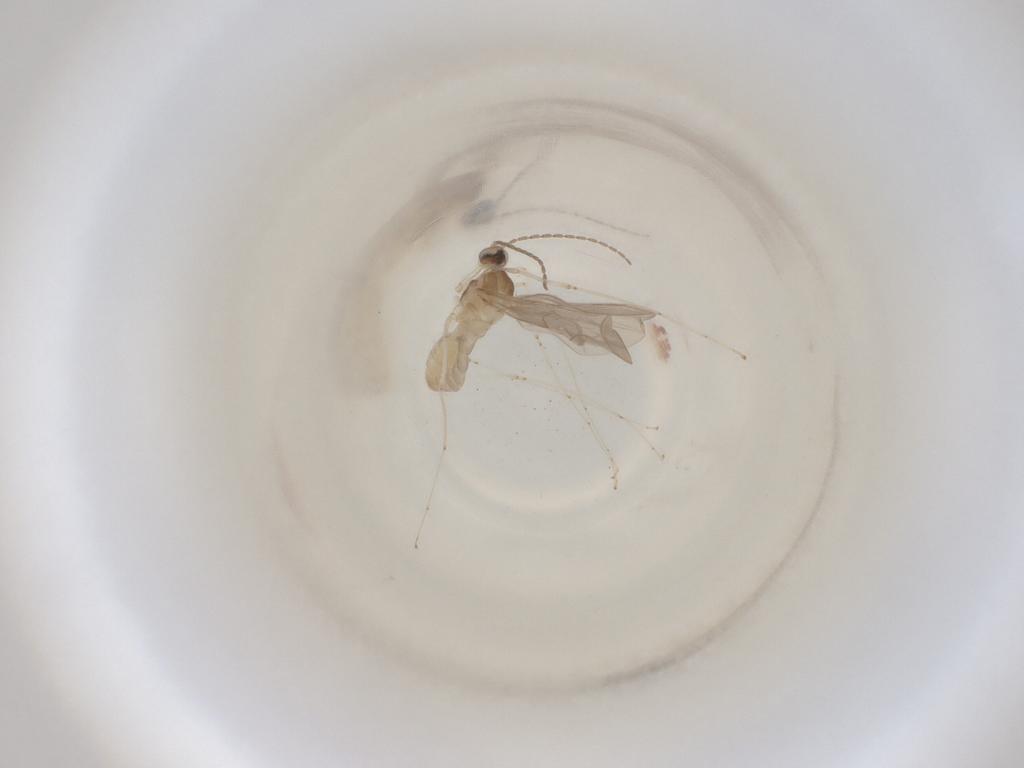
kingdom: Animalia
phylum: Arthropoda
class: Insecta
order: Diptera
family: Cecidomyiidae
